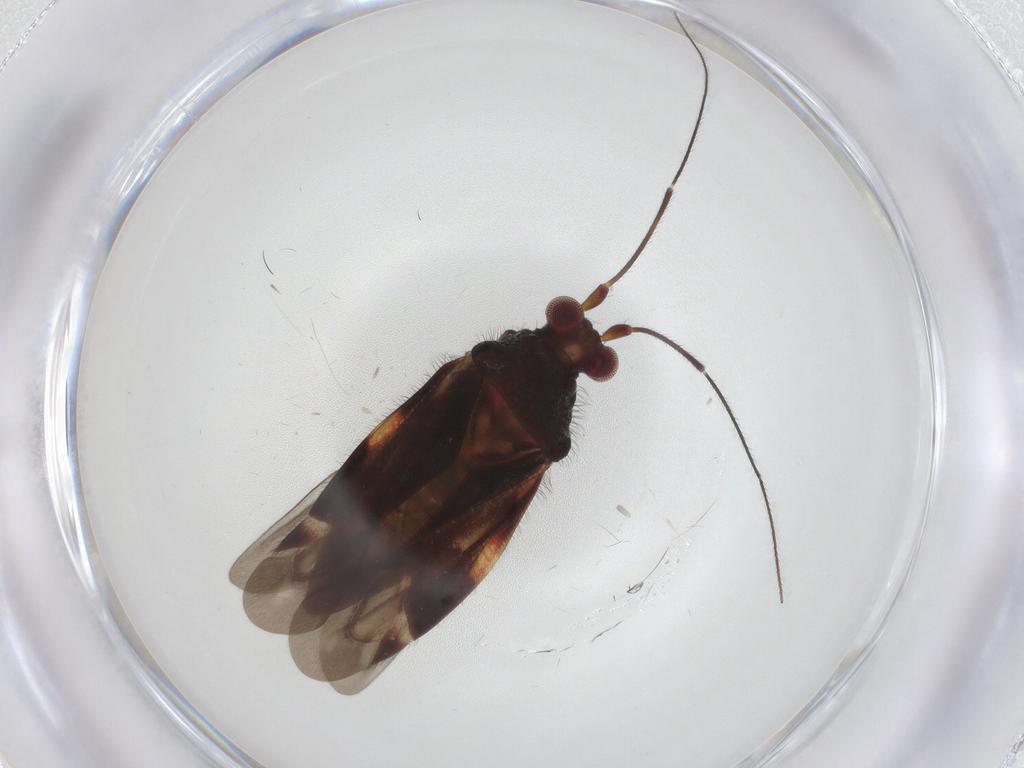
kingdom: Animalia
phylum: Arthropoda
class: Insecta
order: Hemiptera
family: Miridae
